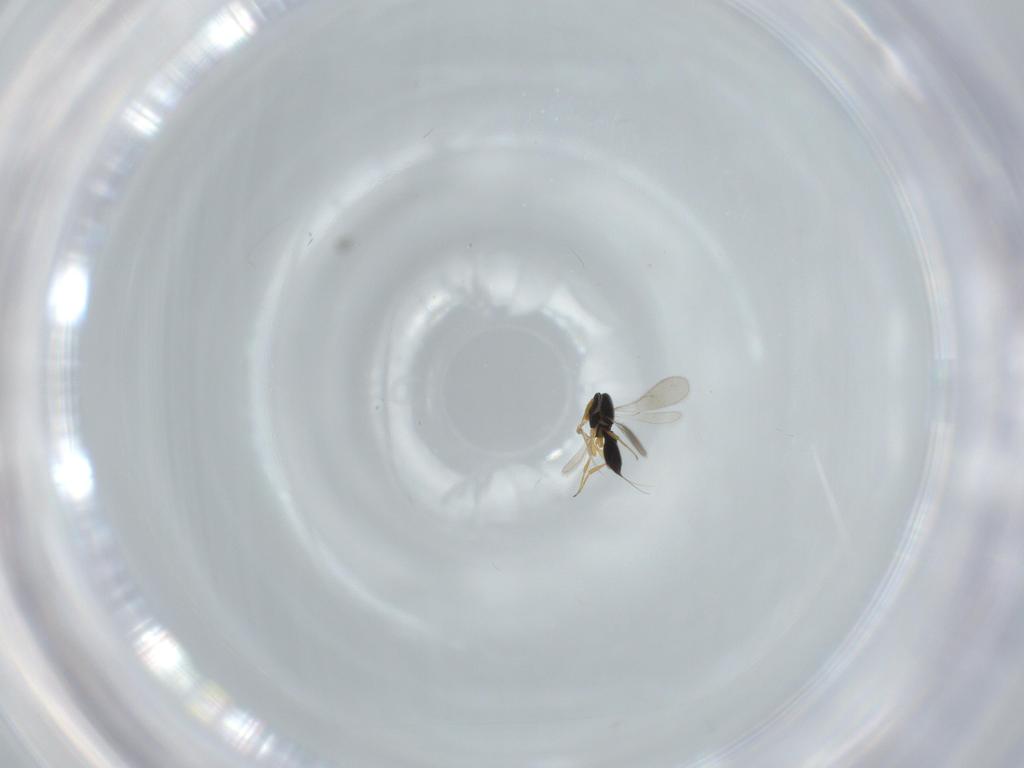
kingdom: Animalia
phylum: Arthropoda
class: Insecta
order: Hymenoptera
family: Scelionidae
